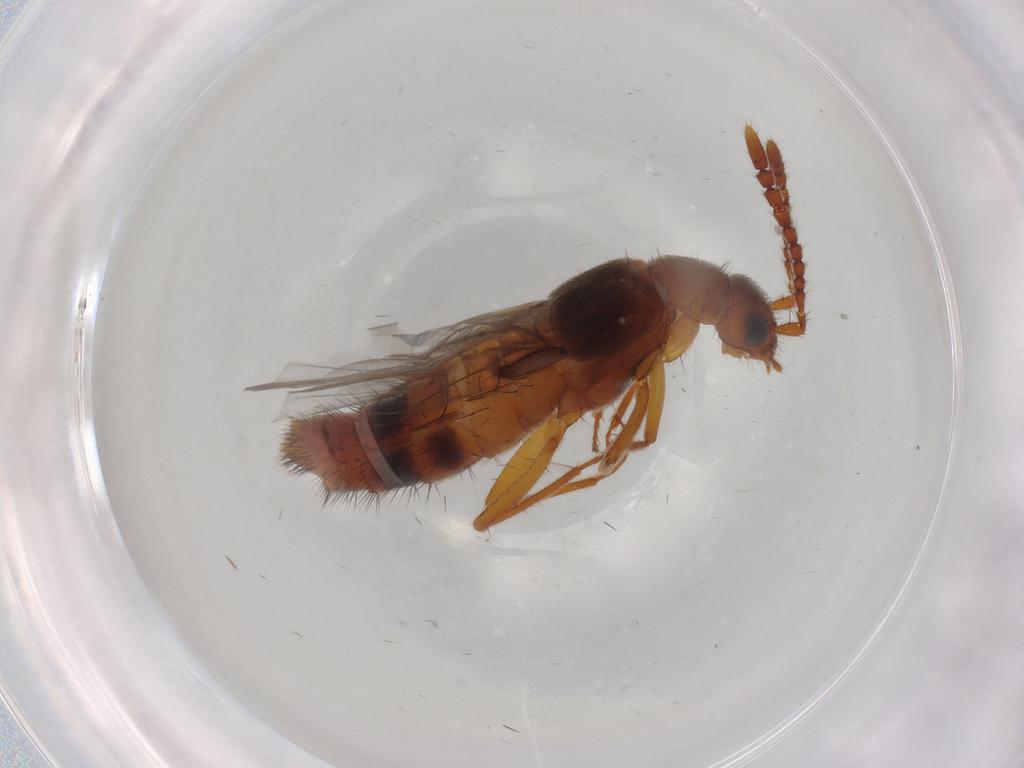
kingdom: Animalia
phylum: Arthropoda
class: Insecta
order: Coleoptera
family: Staphylinidae
